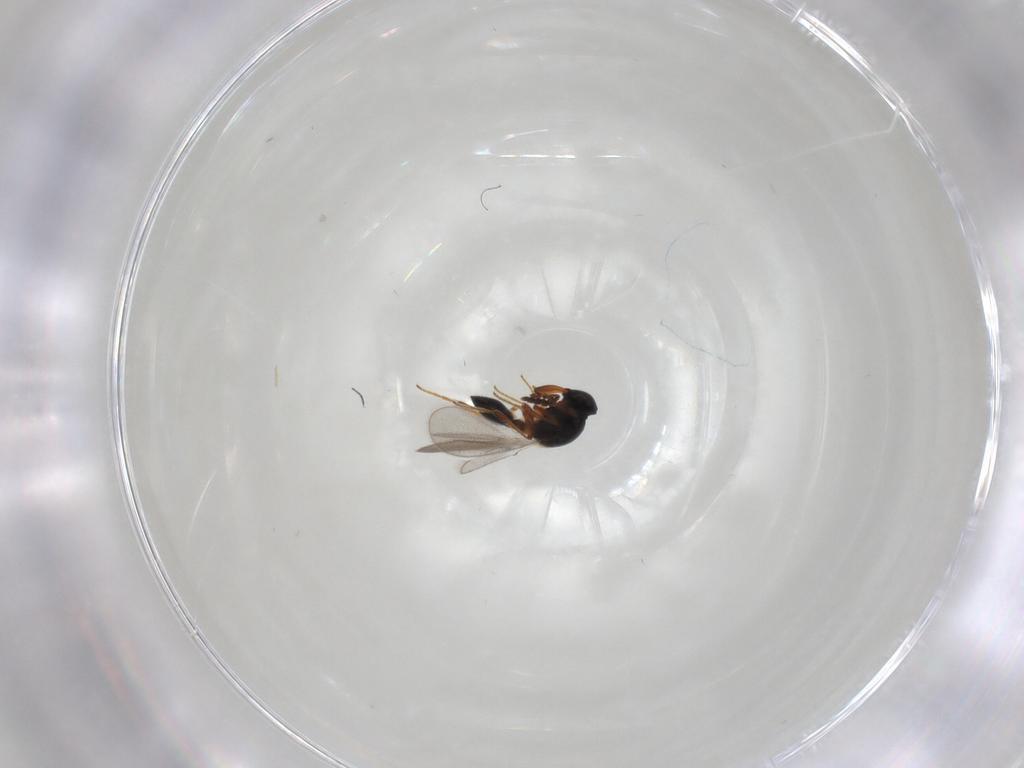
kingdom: Animalia
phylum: Arthropoda
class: Insecta
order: Hymenoptera
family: Platygastridae
